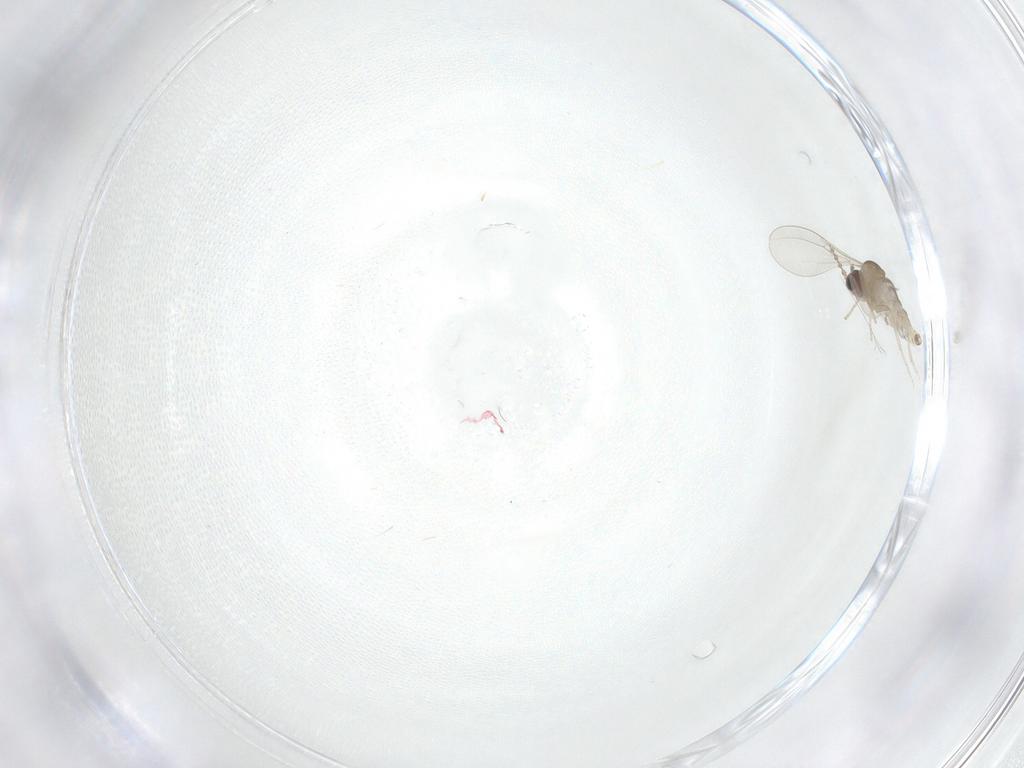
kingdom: Animalia
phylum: Arthropoda
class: Insecta
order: Diptera
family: Cecidomyiidae
